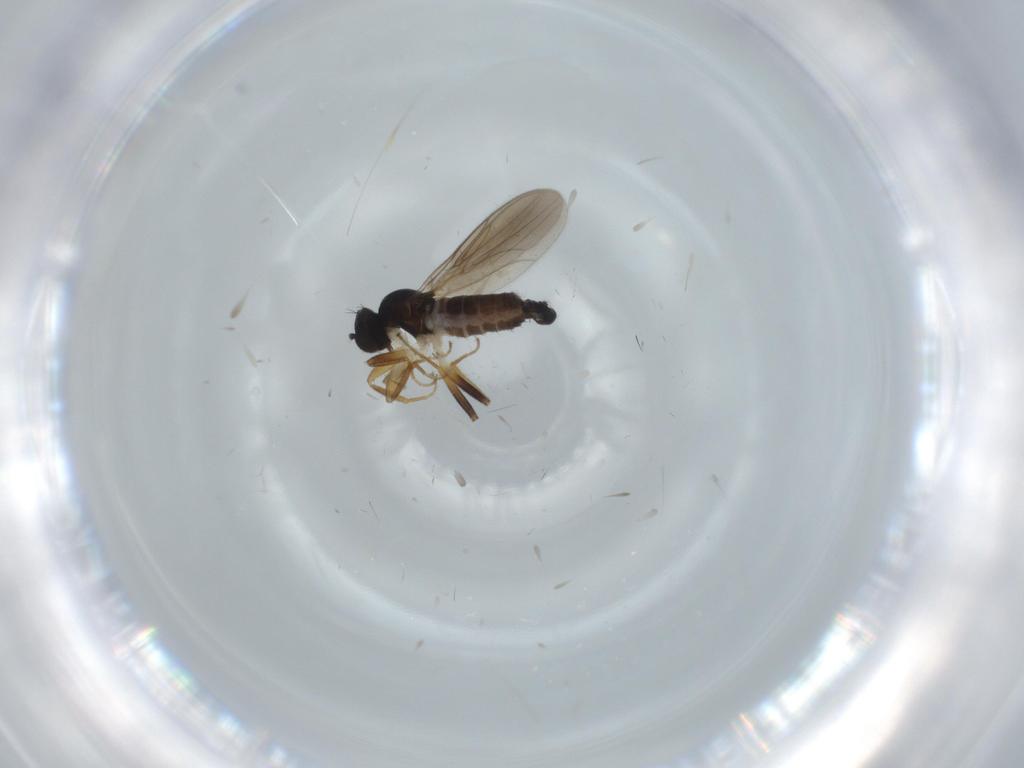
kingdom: Animalia
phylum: Arthropoda
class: Insecta
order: Diptera
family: Hybotidae
